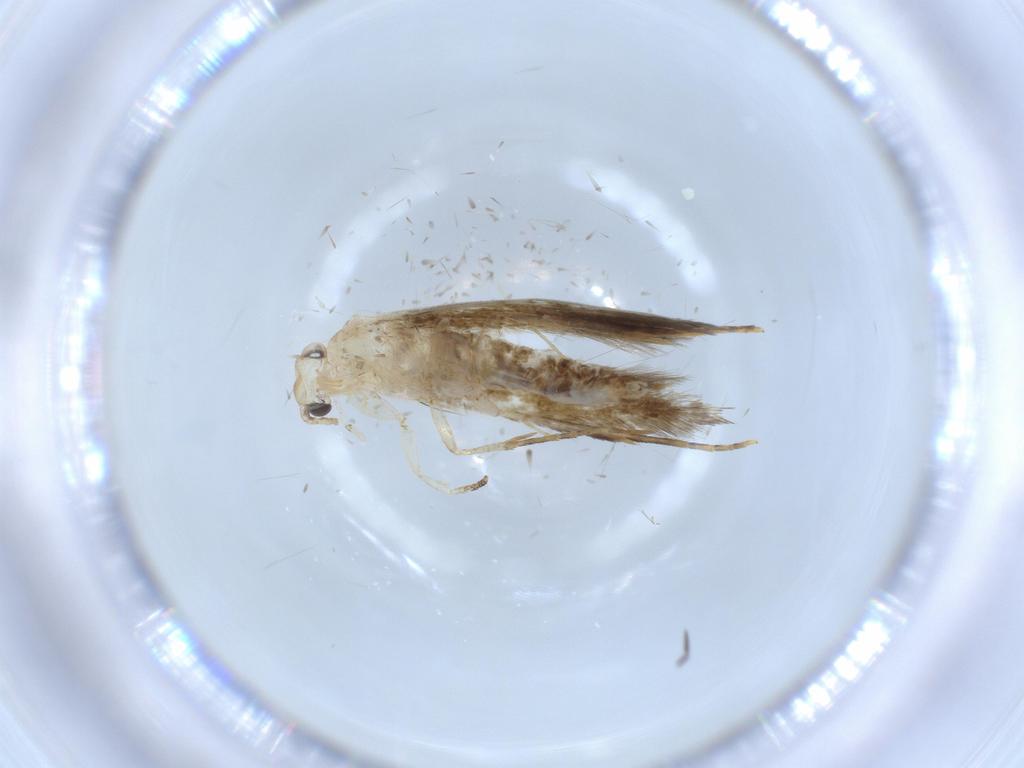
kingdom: Animalia
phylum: Arthropoda
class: Insecta
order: Lepidoptera
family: Tineidae
